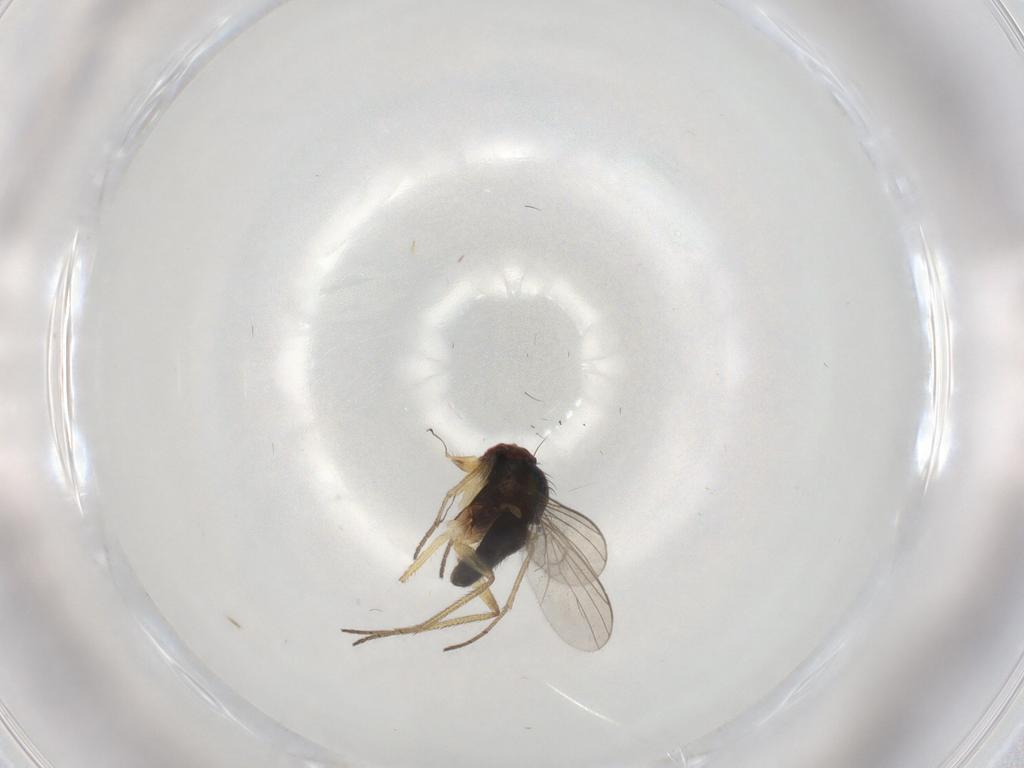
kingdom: Animalia
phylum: Arthropoda
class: Insecta
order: Diptera
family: Dolichopodidae
